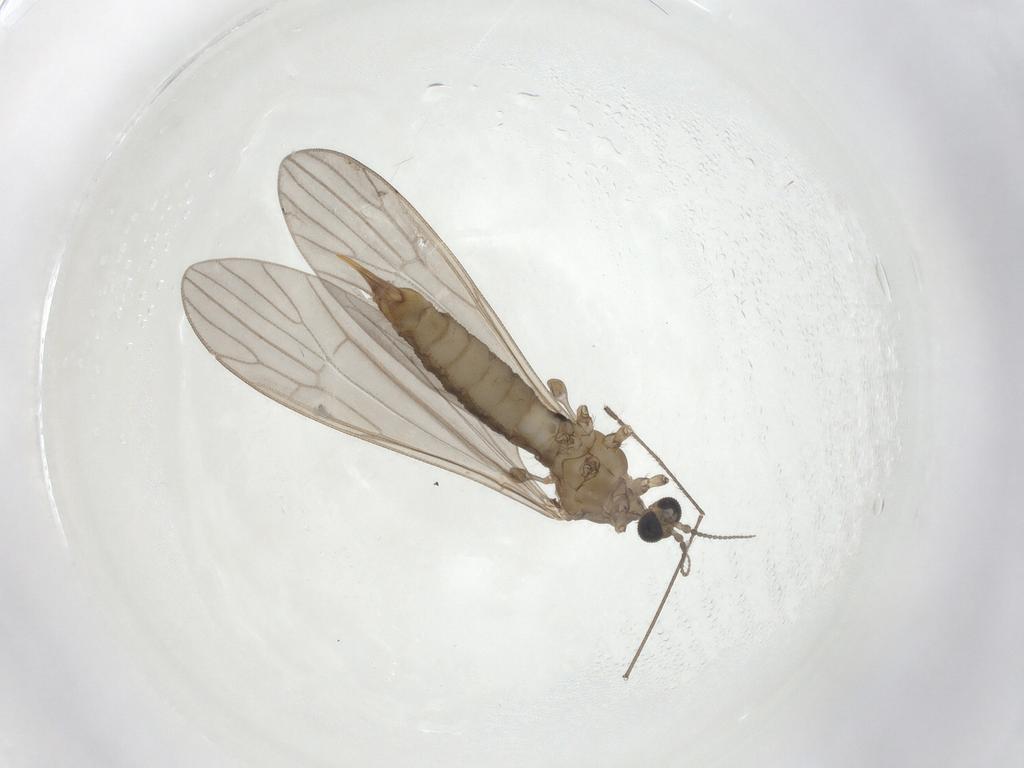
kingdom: Animalia
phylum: Arthropoda
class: Insecta
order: Diptera
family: Limoniidae
